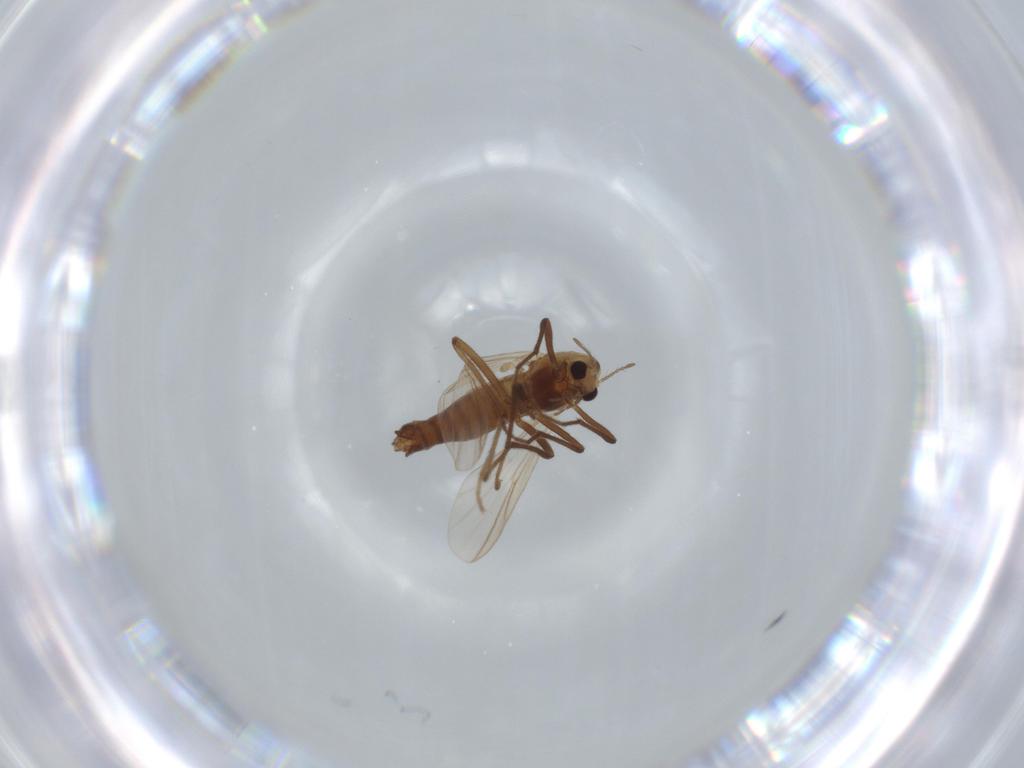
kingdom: Animalia
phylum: Arthropoda
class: Insecta
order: Diptera
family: Chironomidae
